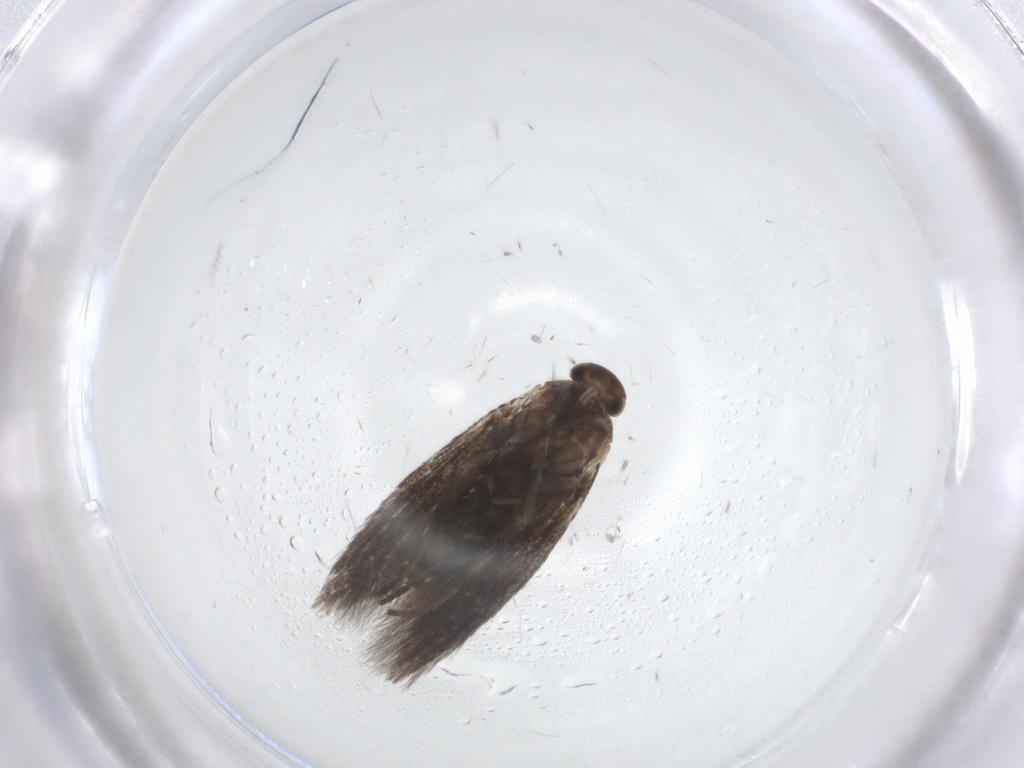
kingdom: Animalia
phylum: Arthropoda
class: Insecta
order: Lepidoptera
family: Elachistidae
